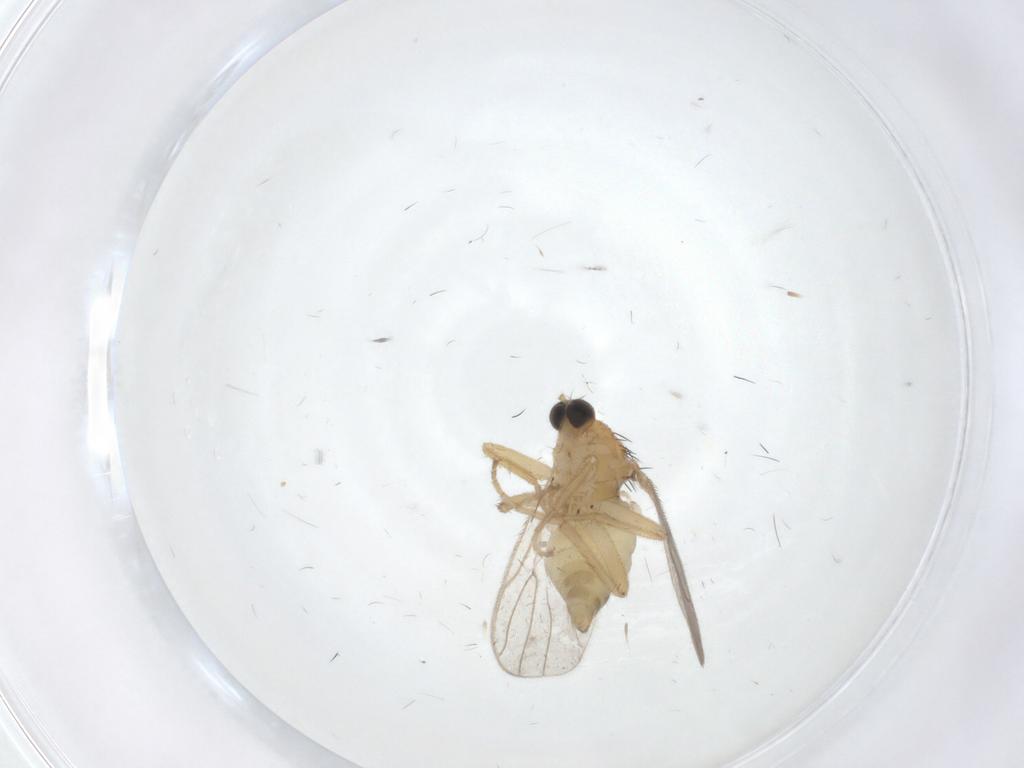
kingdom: Animalia
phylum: Arthropoda
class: Insecta
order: Diptera
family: Hybotidae
